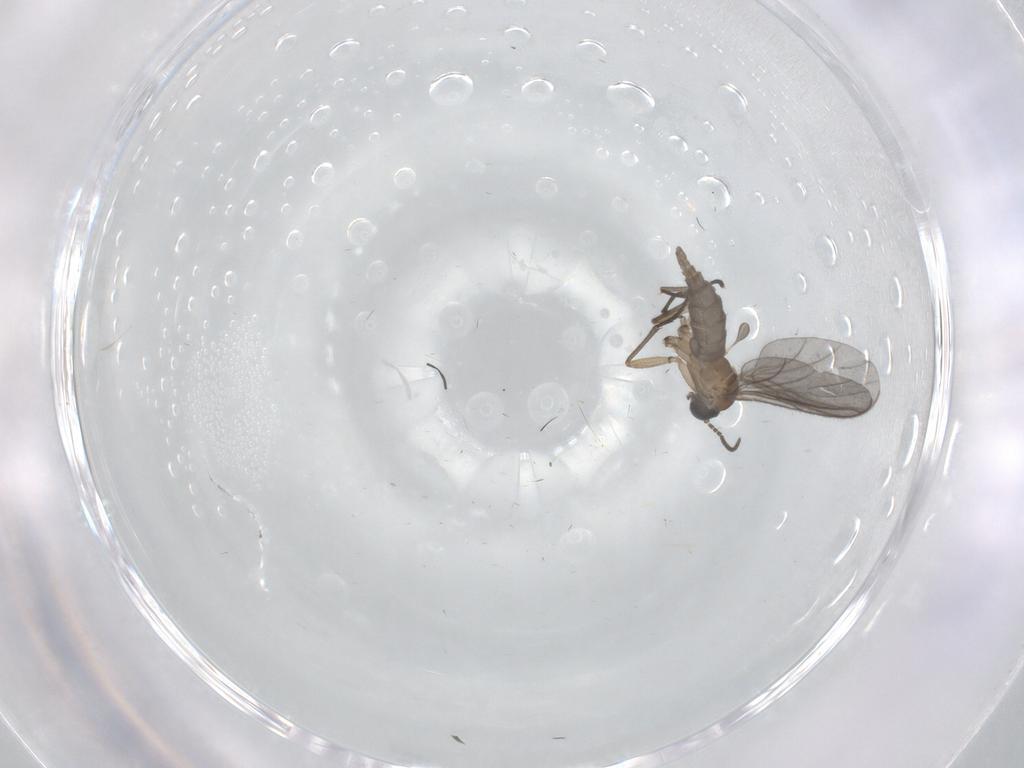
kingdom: Animalia
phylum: Arthropoda
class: Insecta
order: Diptera
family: Sciaridae
